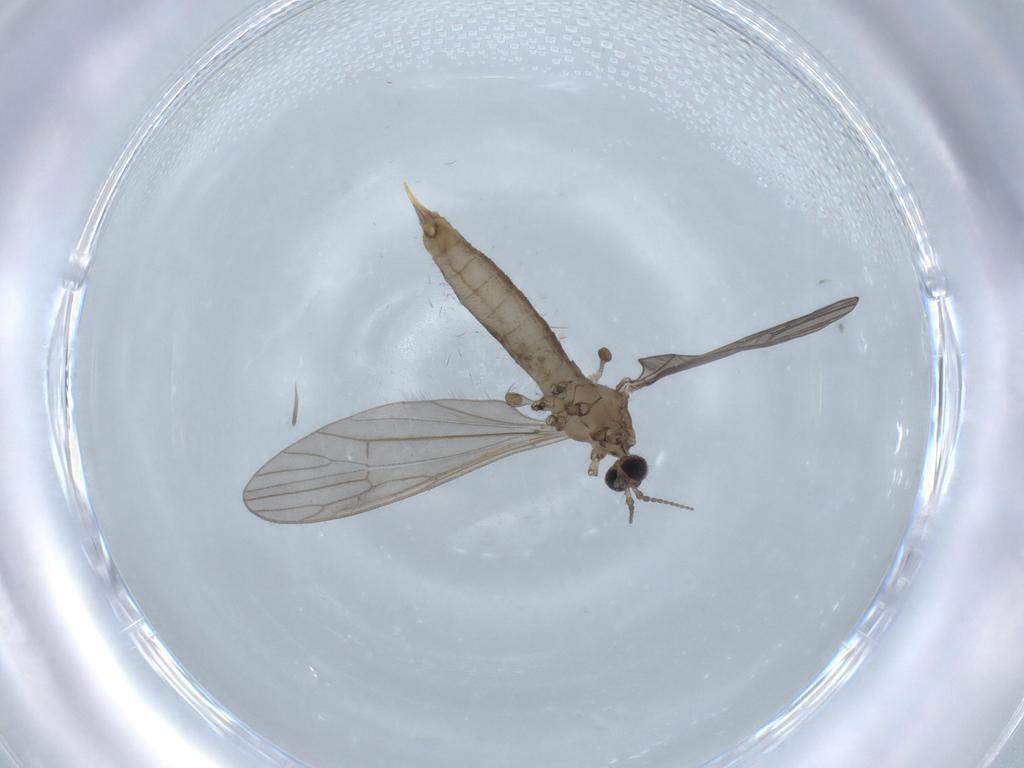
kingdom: Animalia
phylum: Arthropoda
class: Insecta
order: Diptera
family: Limoniidae
